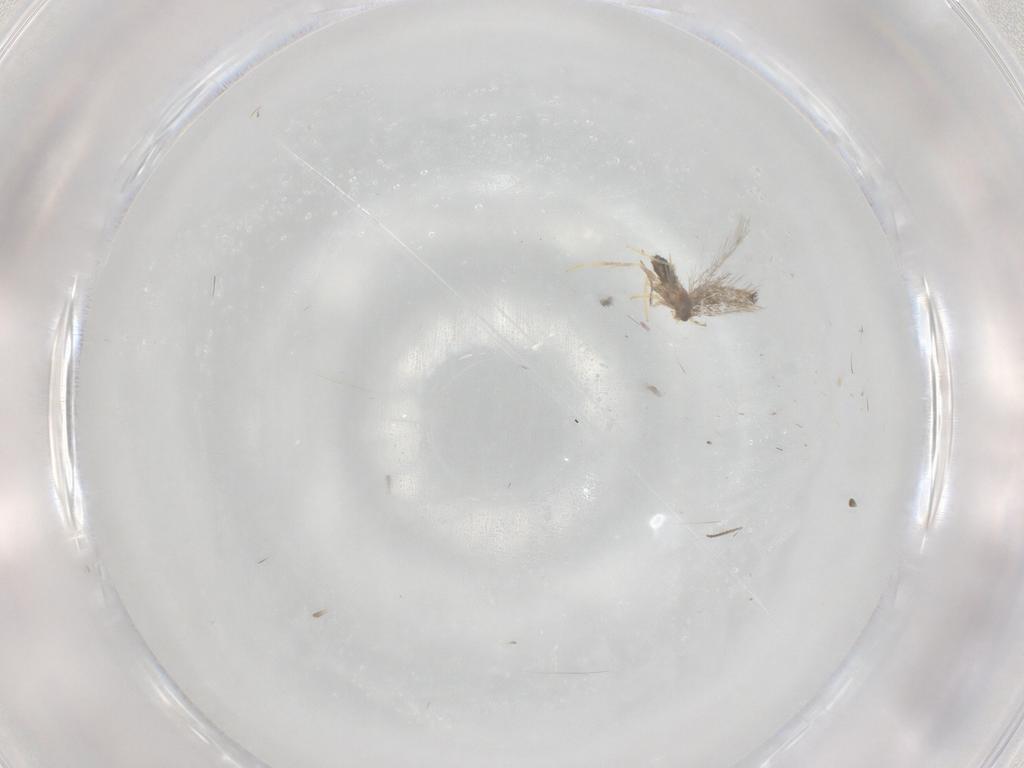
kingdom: Animalia
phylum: Arthropoda
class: Insecta
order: Lepidoptera
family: Nepticulidae
